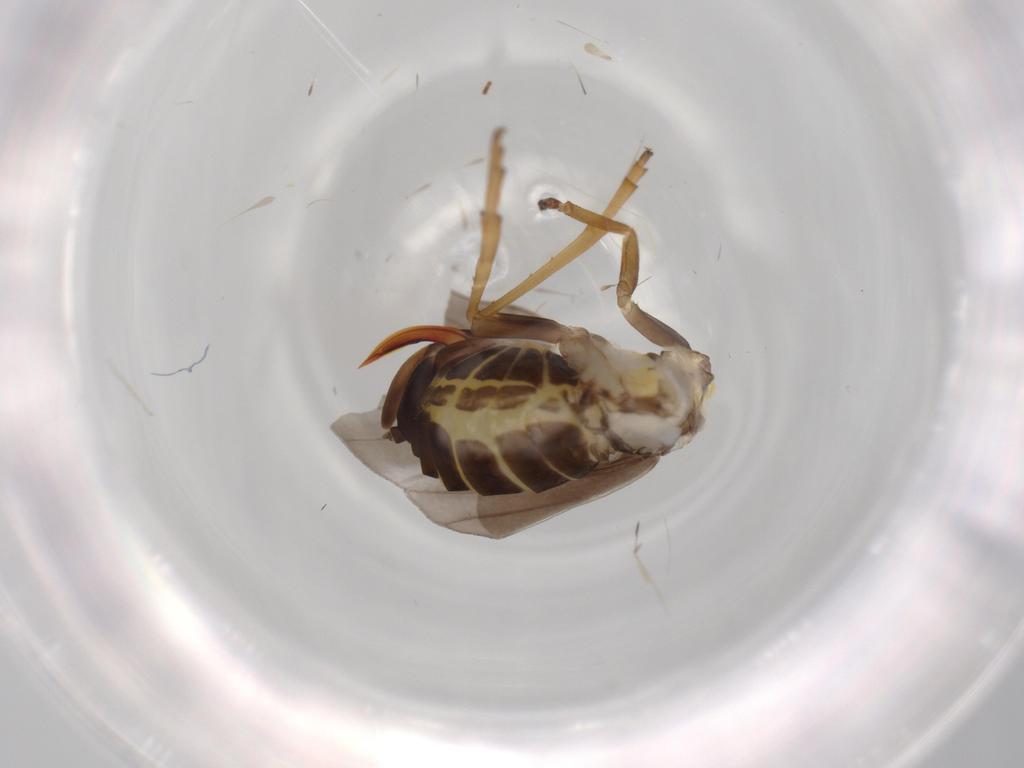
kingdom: Animalia
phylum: Arthropoda
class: Insecta
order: Hemiptera
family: Cixiidae
